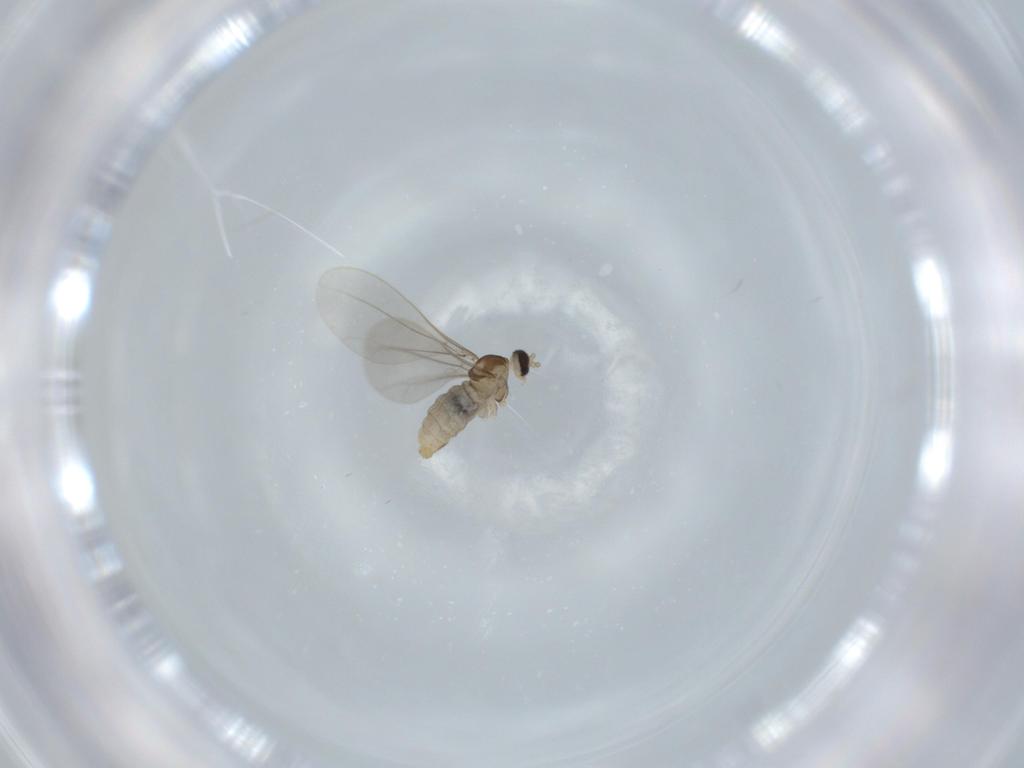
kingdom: Animalia
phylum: Arthropoda
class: Insecta
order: Diptera
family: Cecidomyiidae
